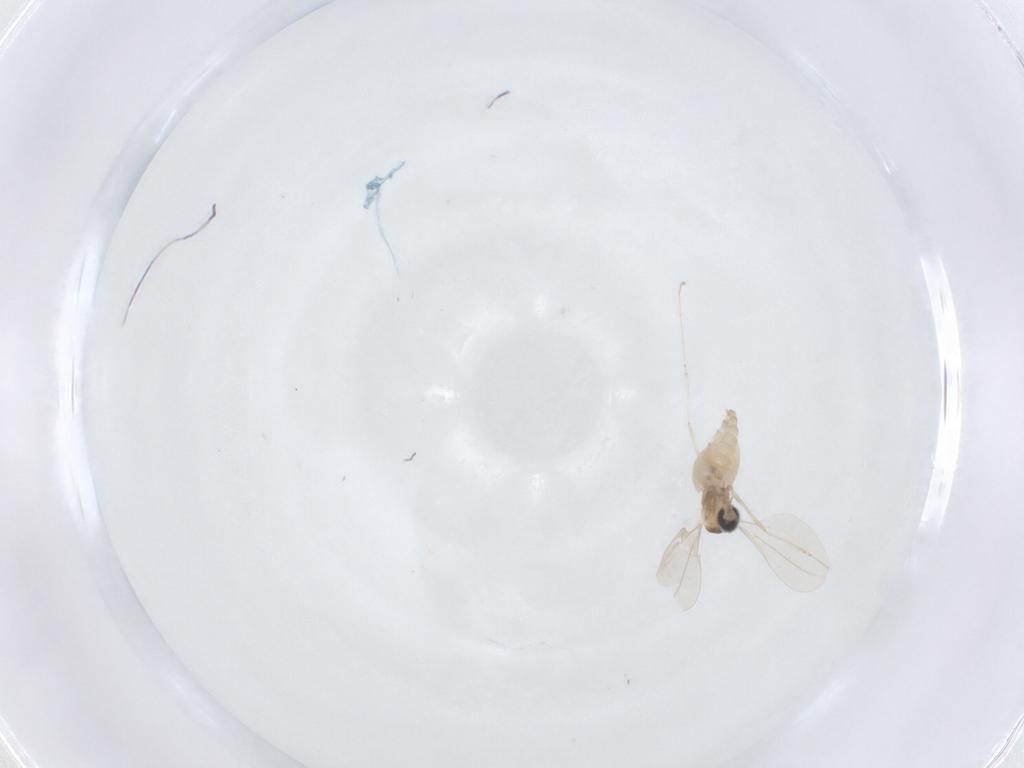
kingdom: Animalia
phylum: Arthropoda
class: Insecta
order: Diptera
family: Cecidomyiidae
